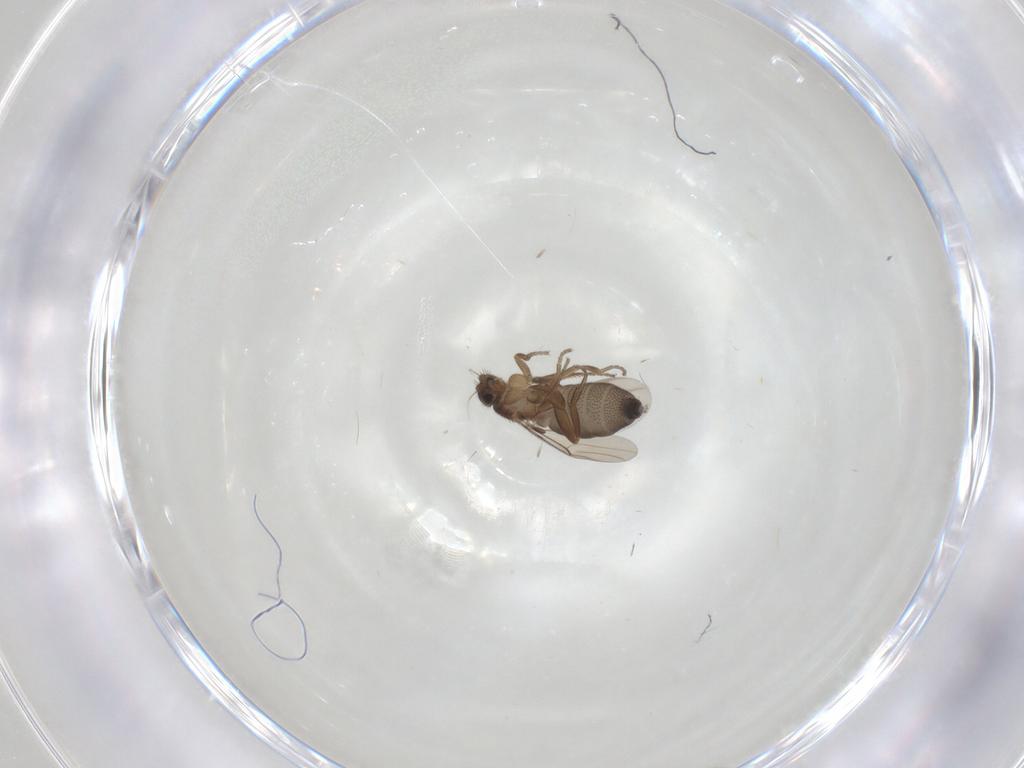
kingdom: Animalia
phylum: Arthropoda
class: Insecta
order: Diptera
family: Phoridae
